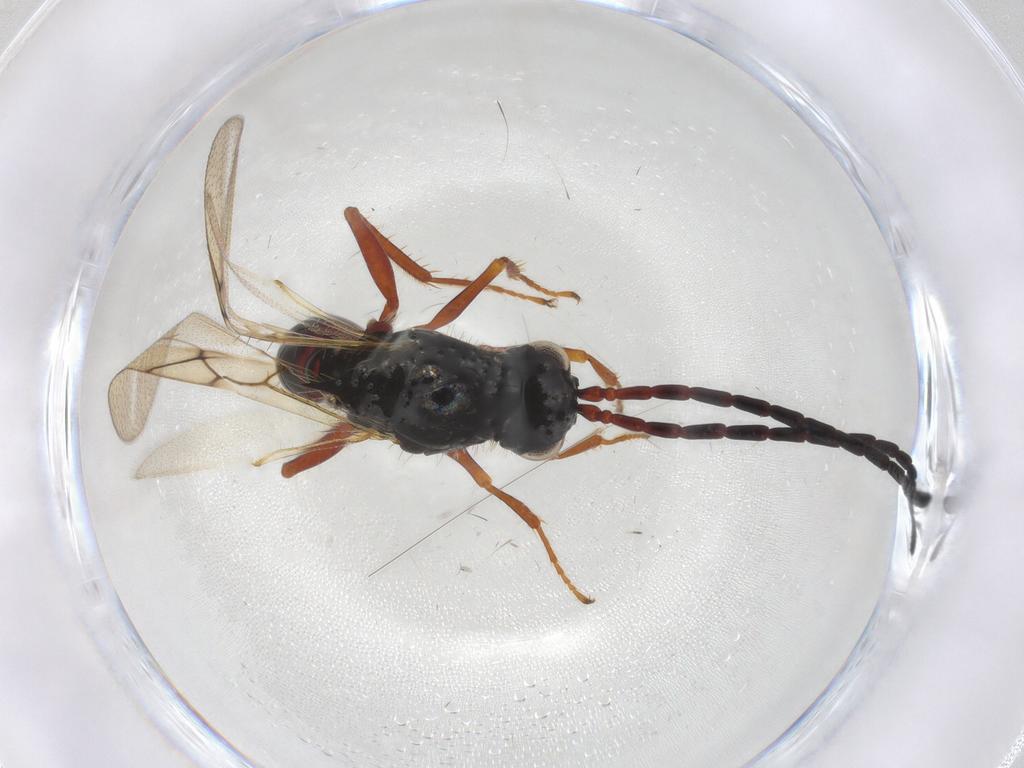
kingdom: Animalia
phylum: Arthropoda
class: Insecta
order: Hymenoptera
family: Figitidae
